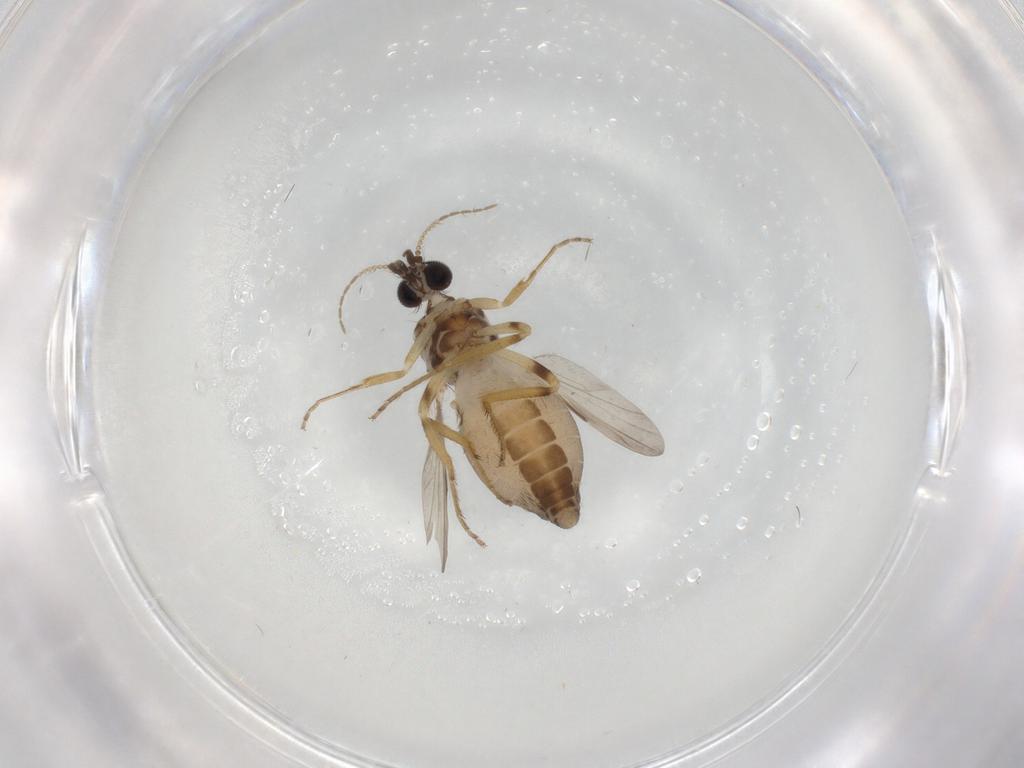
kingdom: Animalia
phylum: Arthropoda
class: Insecta
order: Diptera
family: Ceratopogonidae
